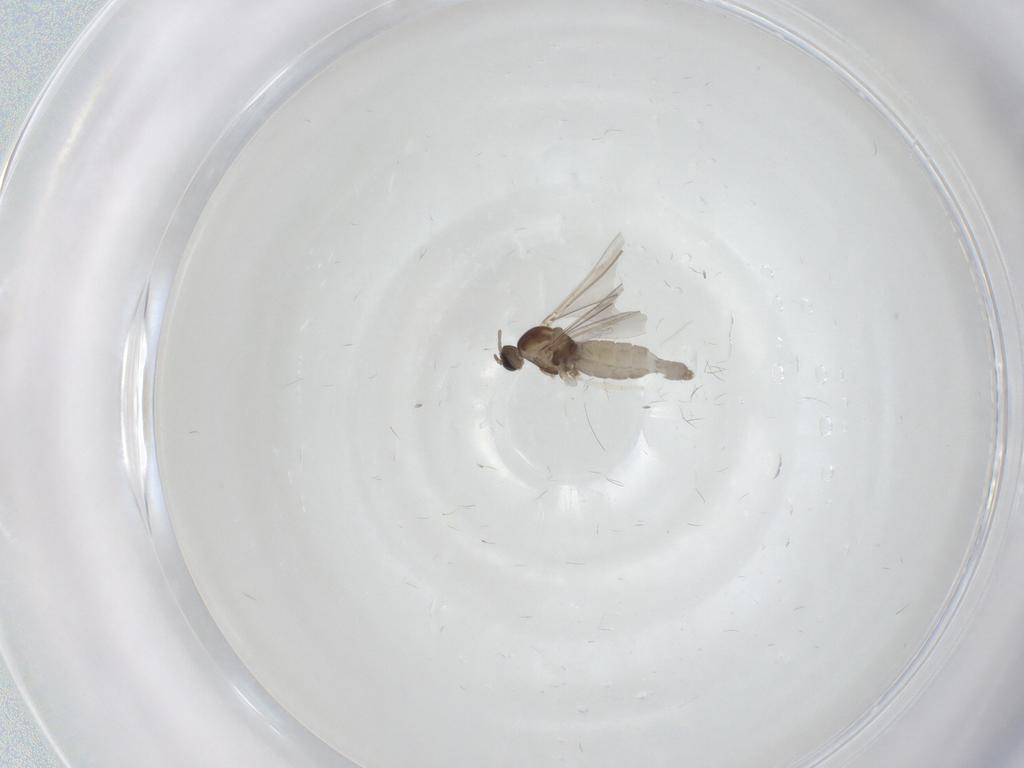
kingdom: Animalia
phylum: Arthropoda
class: Insecta
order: Diptera
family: Cecidomyiidae
